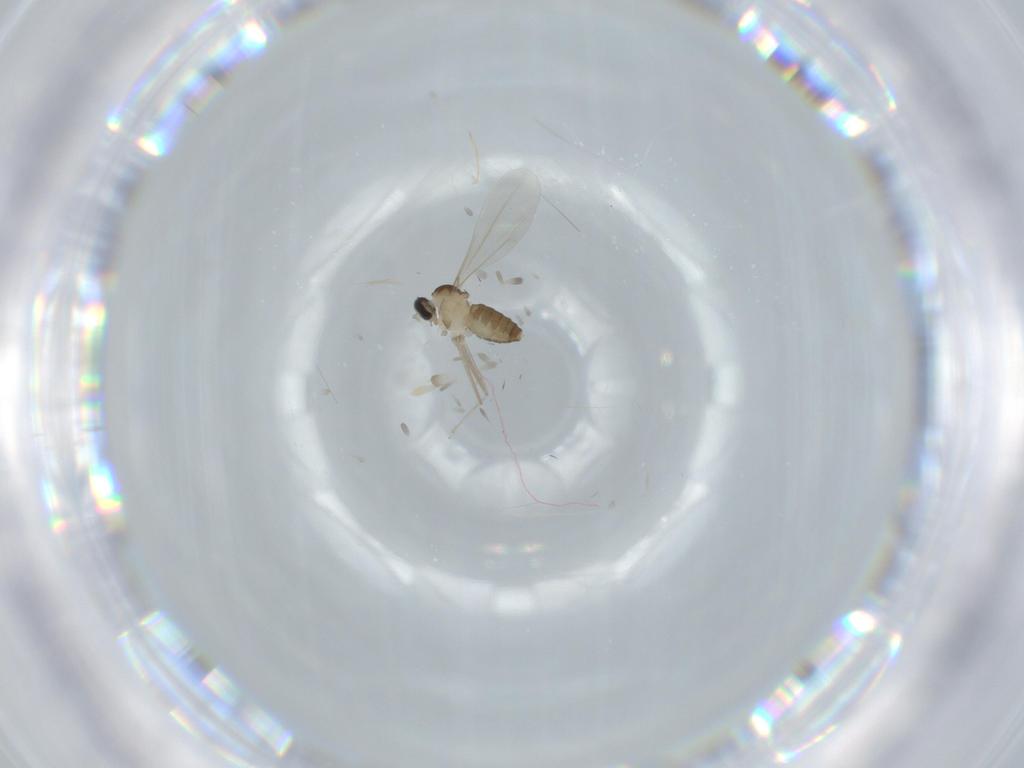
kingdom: Animalia
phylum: Arthropoda
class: Insecta
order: Diptera
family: Cecidomyiidae
